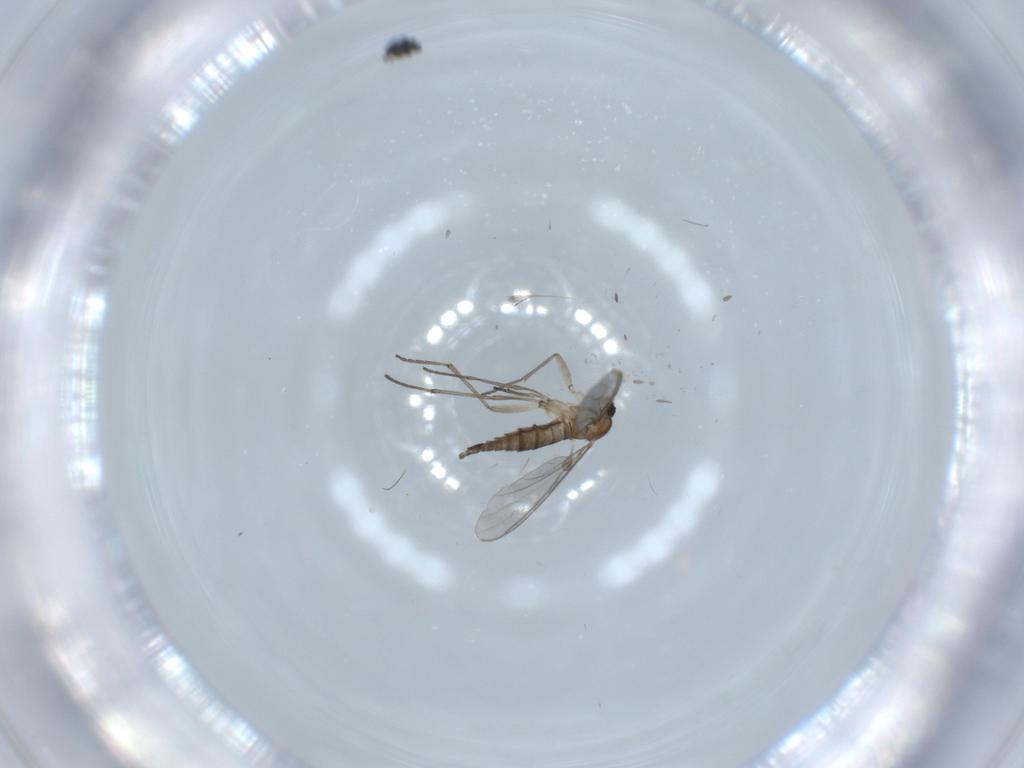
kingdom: Animalia
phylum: Arthropoda
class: Insecta
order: Diptera
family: Sciaridae
